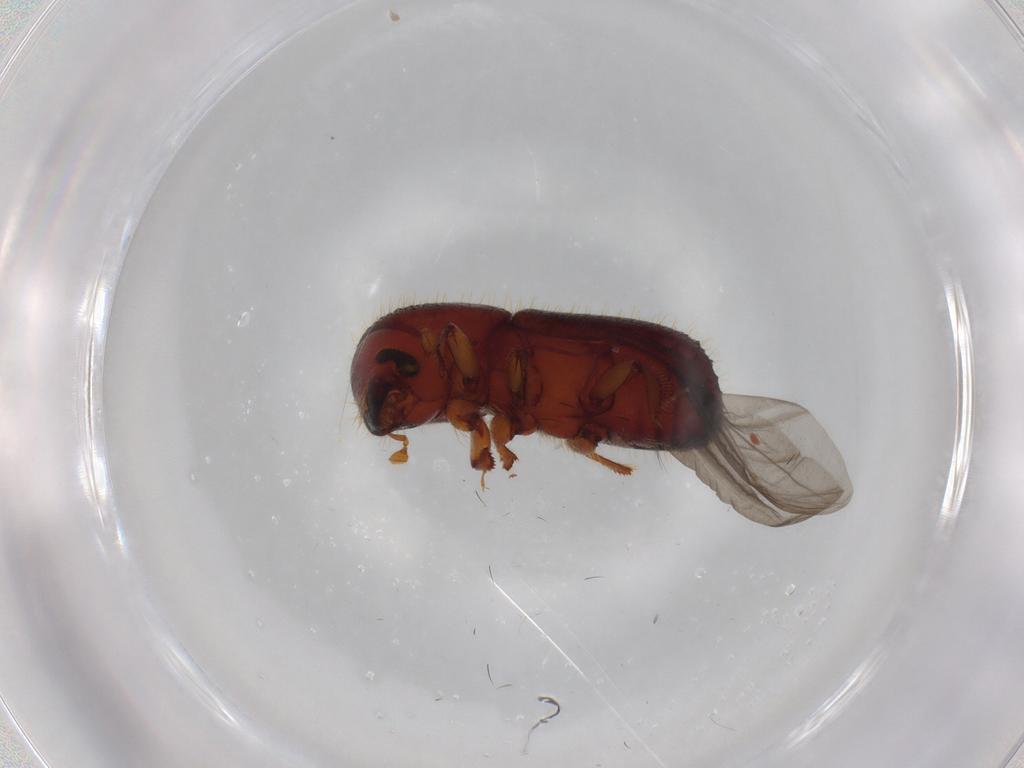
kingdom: Animalia
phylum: Arthropoda
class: Insecta
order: Coleoptera
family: Curculionidae
